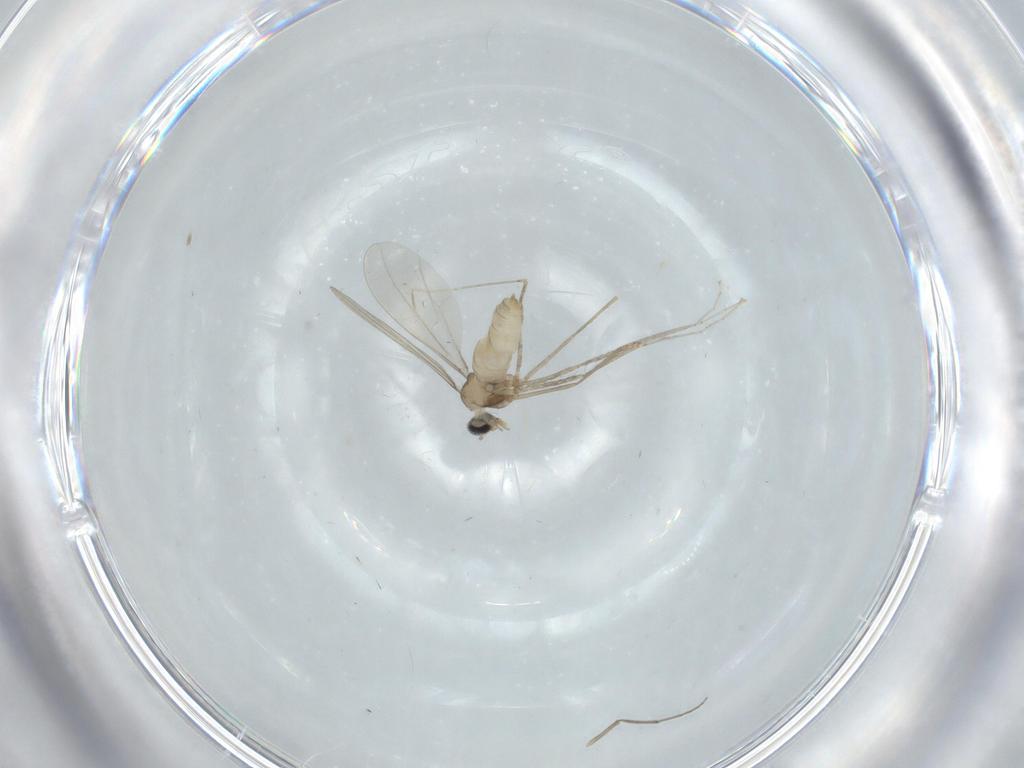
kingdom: Animalia
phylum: Arthropoda
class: Insecta
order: Diptera
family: Cecidomyiidae
